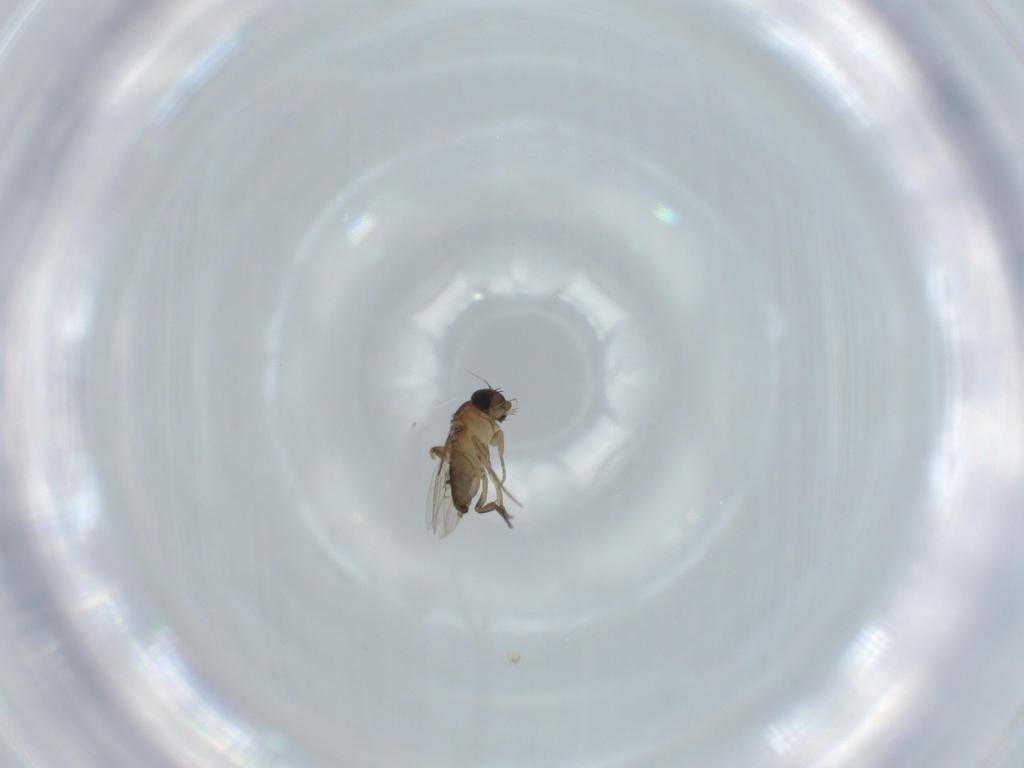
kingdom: Animalia
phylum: Arthropoda
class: Insecta
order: Diptera
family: Phoridae
